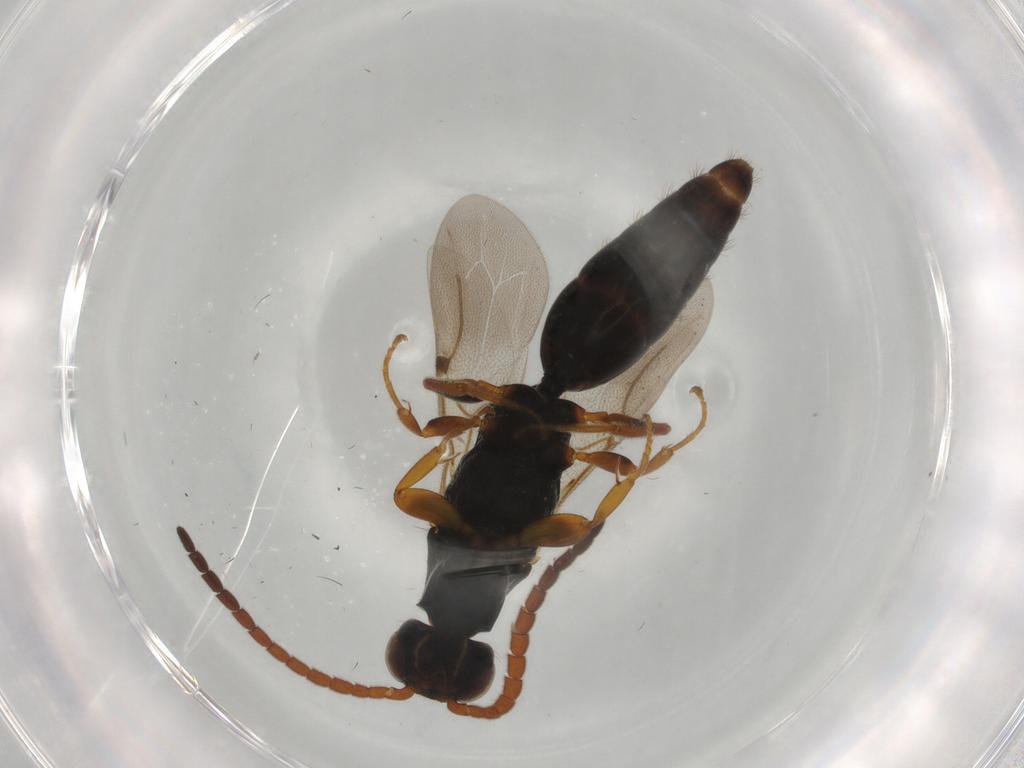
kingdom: Animalia
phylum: Arthropoda
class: Insecta
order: Hymenoptera
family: Bethylidae
